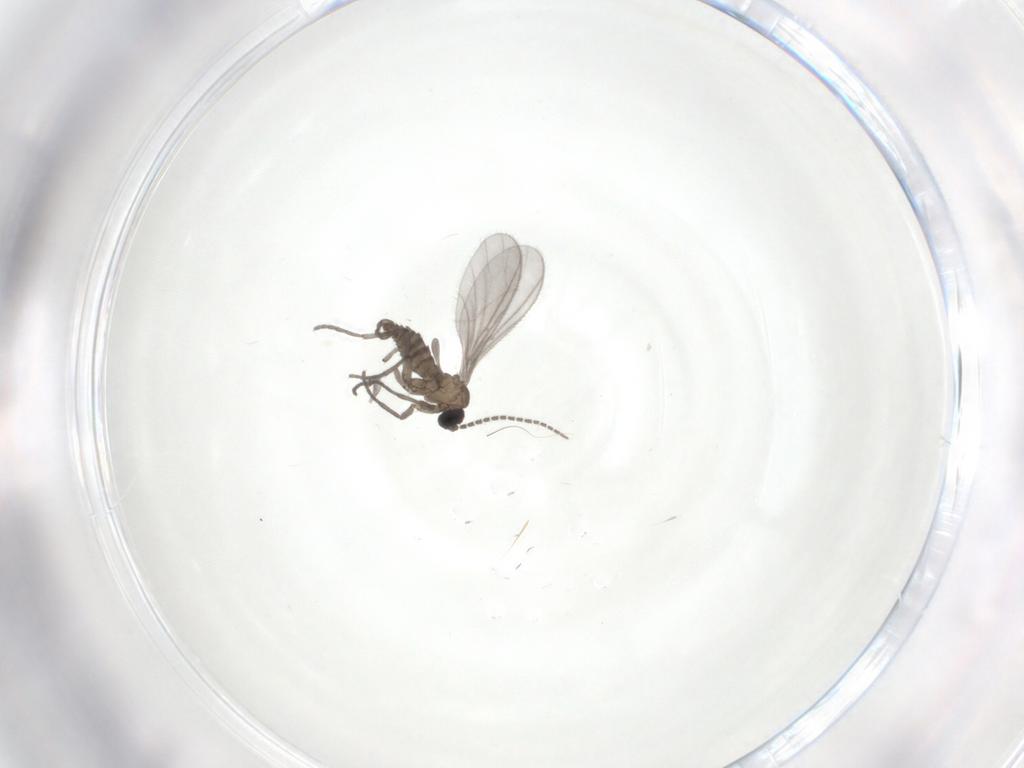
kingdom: Animalia
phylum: Arthropoda
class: Insecta
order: Diptera
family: Sciaridae
